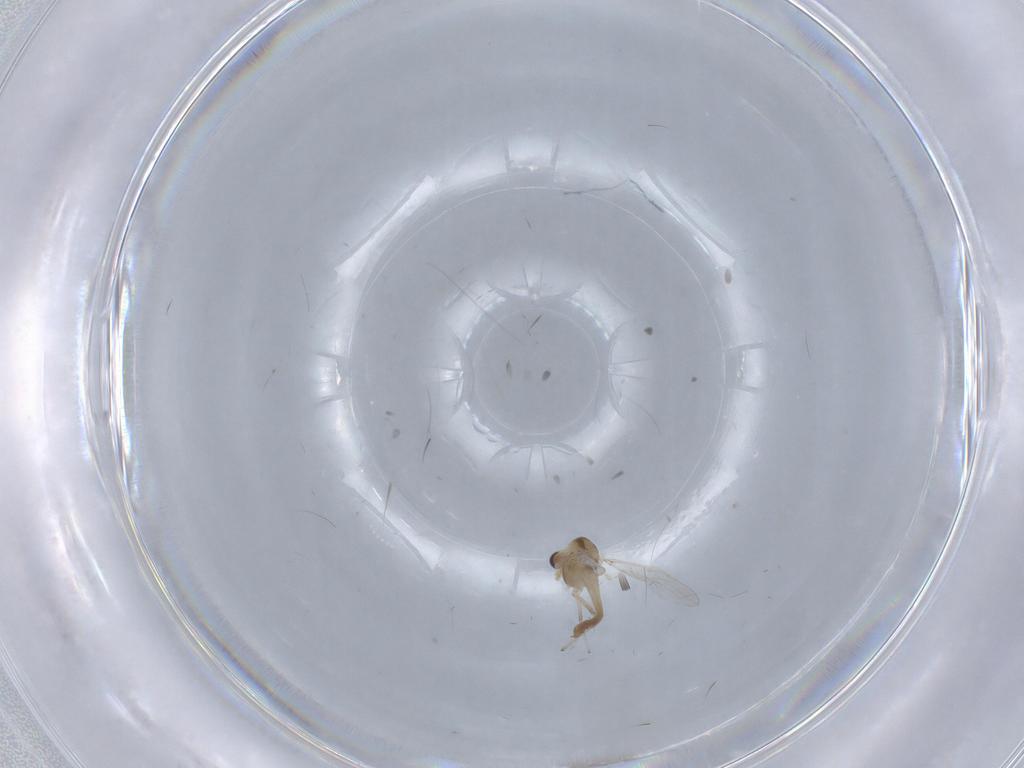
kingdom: Animalia
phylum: Arthropoda
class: Insecta
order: Diptera
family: Chironomidae
